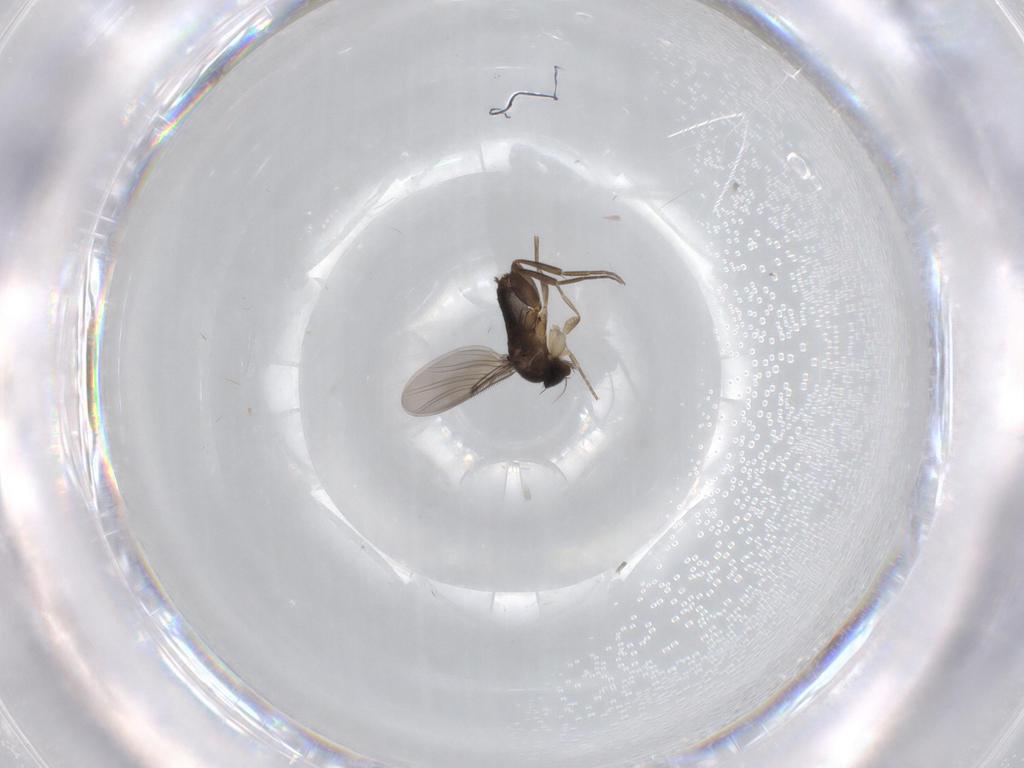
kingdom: Animalia
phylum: Arthropoda
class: Insecta
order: Diptera
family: Phoridae
